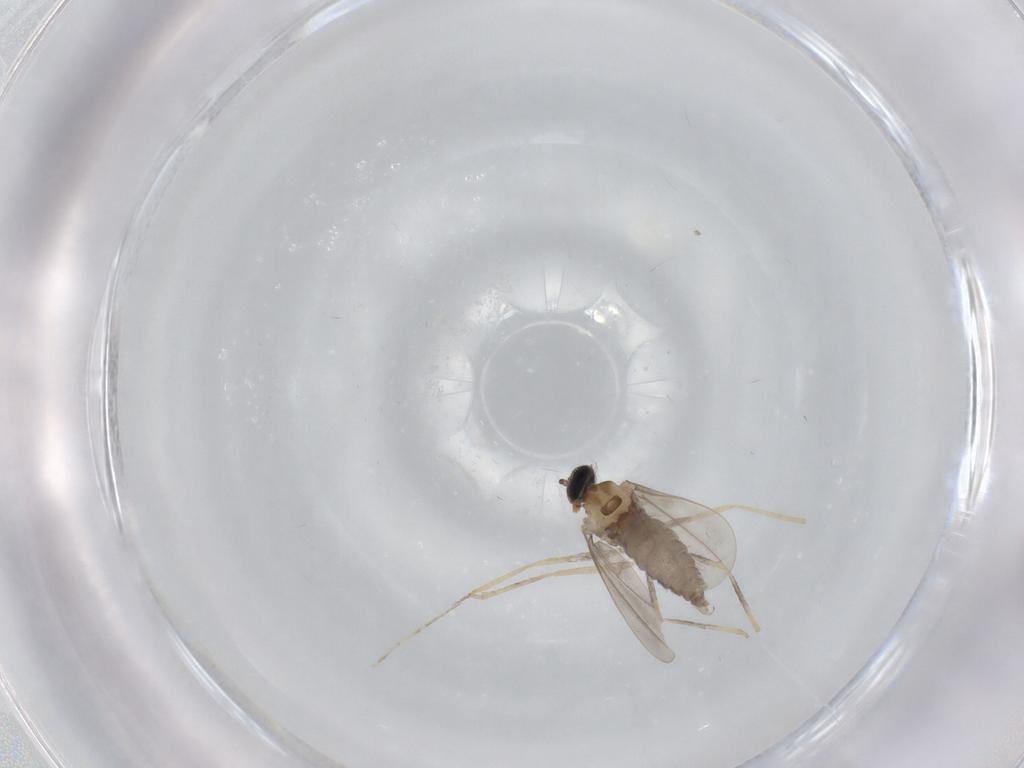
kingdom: Animalia
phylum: Arthropoda
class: Insecta
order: Diptera
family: Cecidomyiidae
